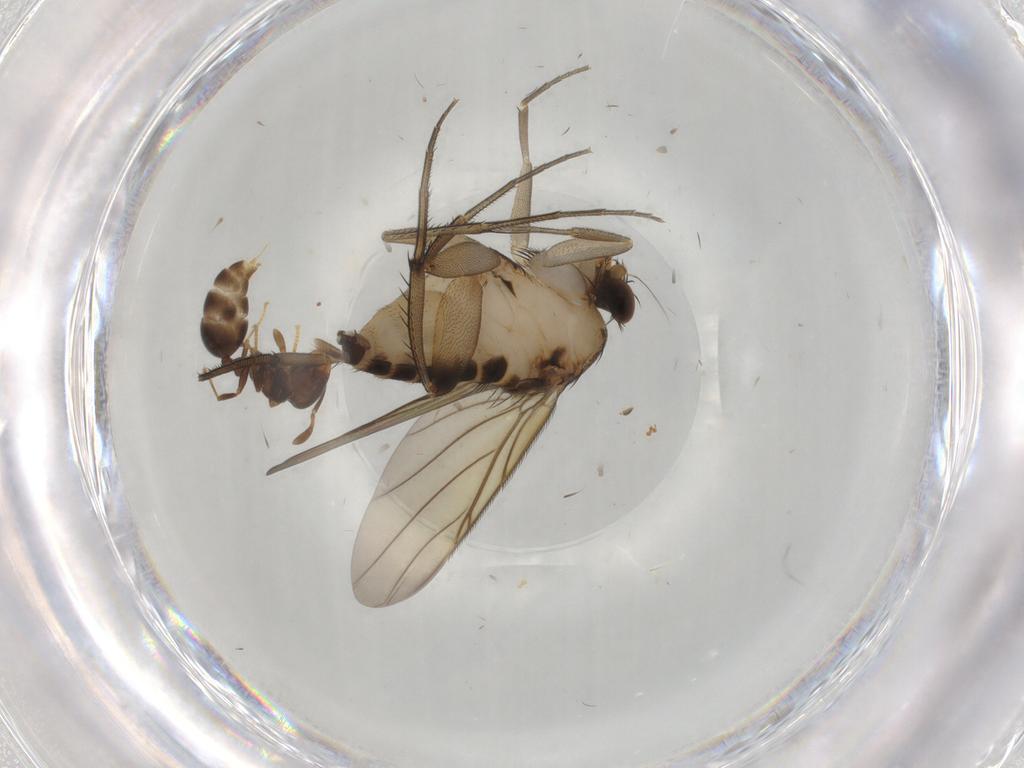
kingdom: Animalia
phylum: Arthropoda
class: Insecta
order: Diptera
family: Phoridae
